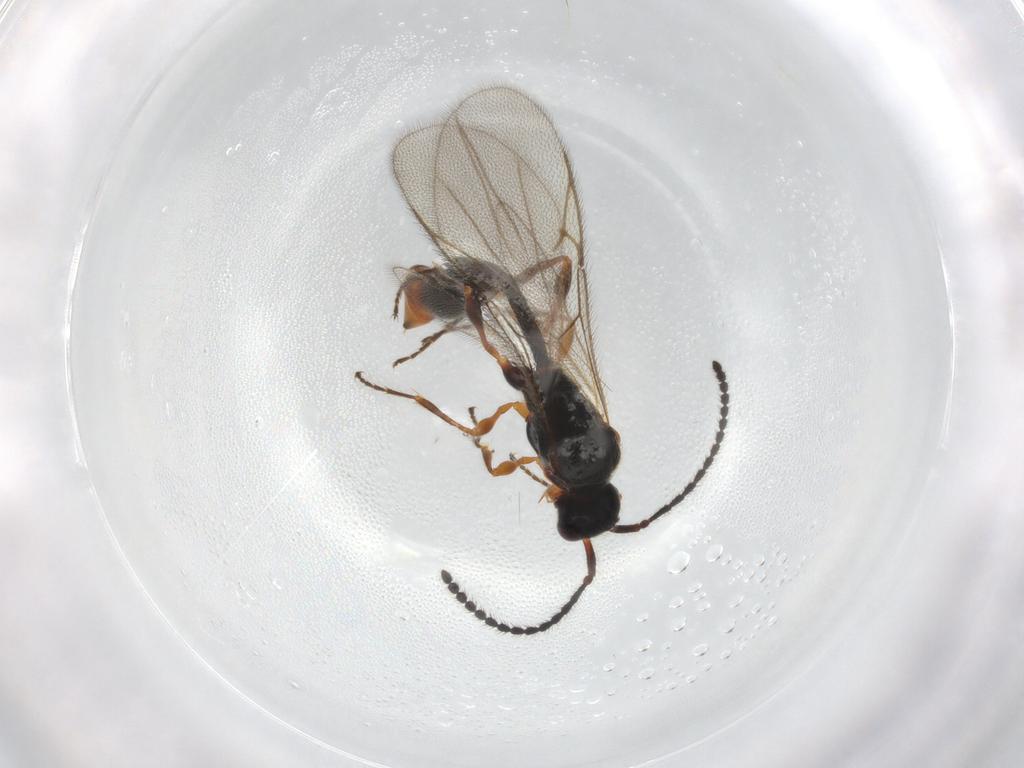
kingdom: Animalia
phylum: Arthropoda
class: Insecta
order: Hymenoptera
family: Diapriidae
